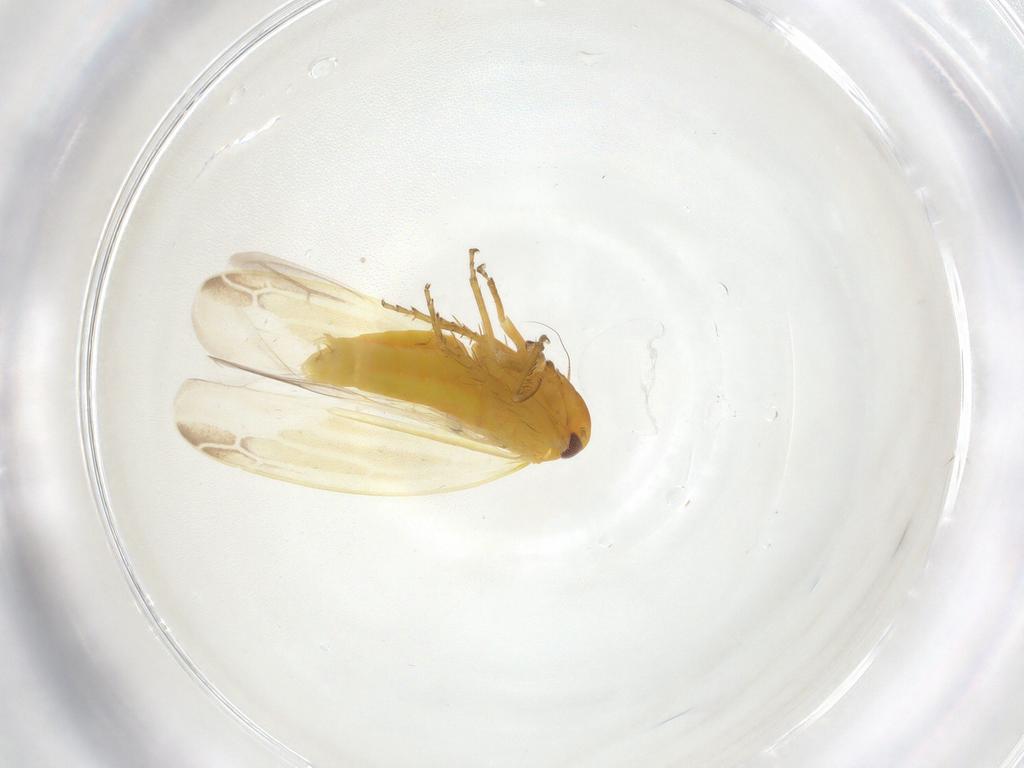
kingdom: Animalia
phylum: Arthropoda
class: Insecta
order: Hemiptera
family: Cicadellidae
